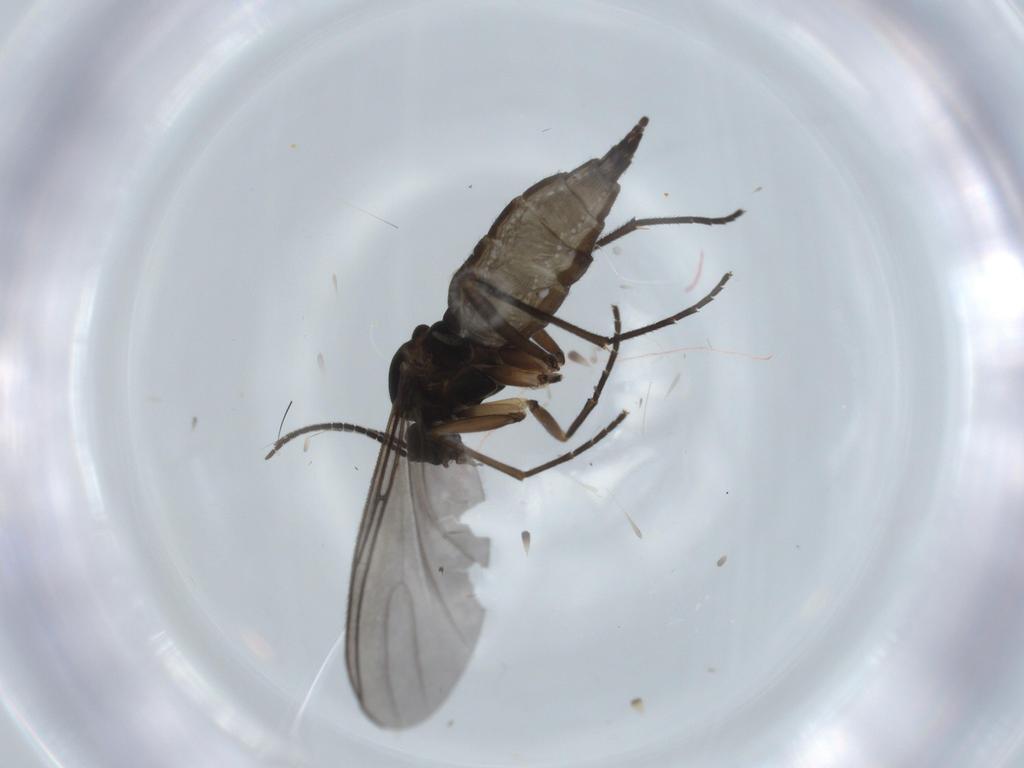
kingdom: Animalia
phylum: Arthropoda
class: Insecta
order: Diptera
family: Sciaridae
